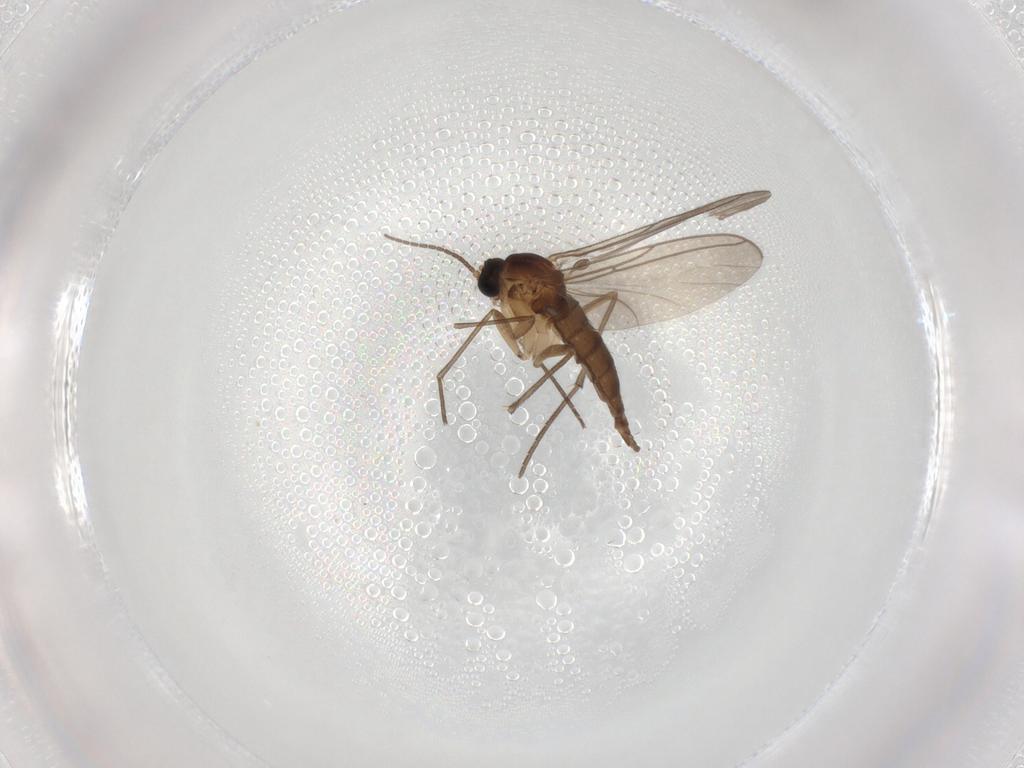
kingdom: Animalia
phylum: Arthropoda
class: Insecta
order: Diptera
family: Sciaridae
